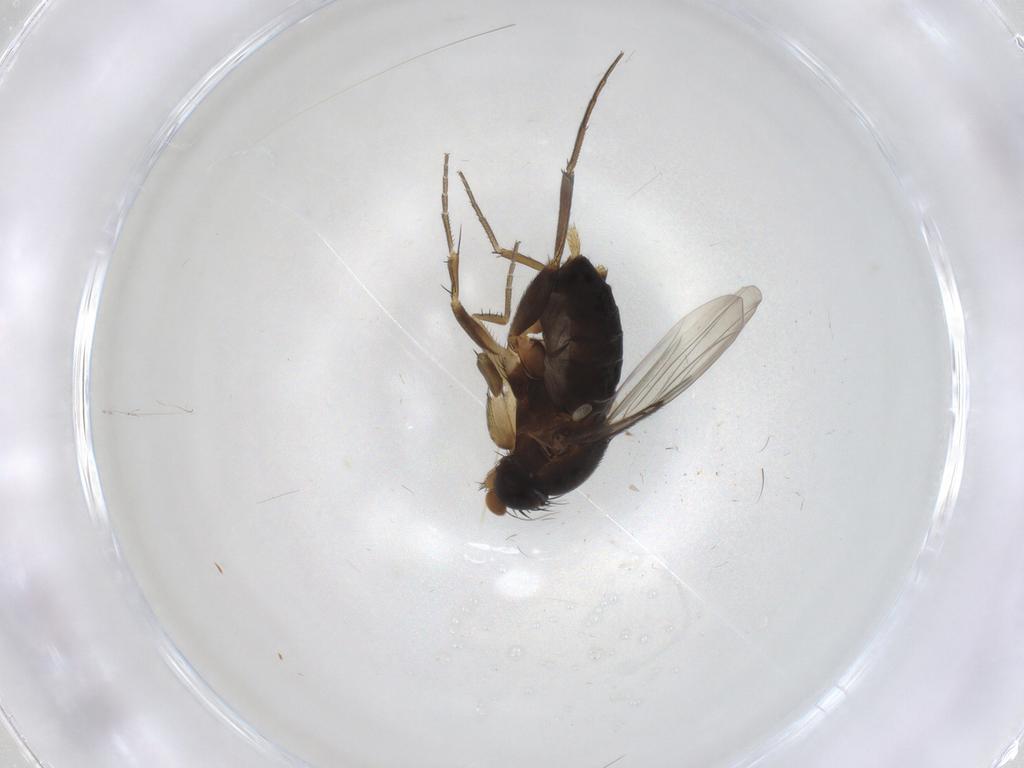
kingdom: Animalia
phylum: Arthropoda
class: Insecta
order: Diptera
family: Phoridae
